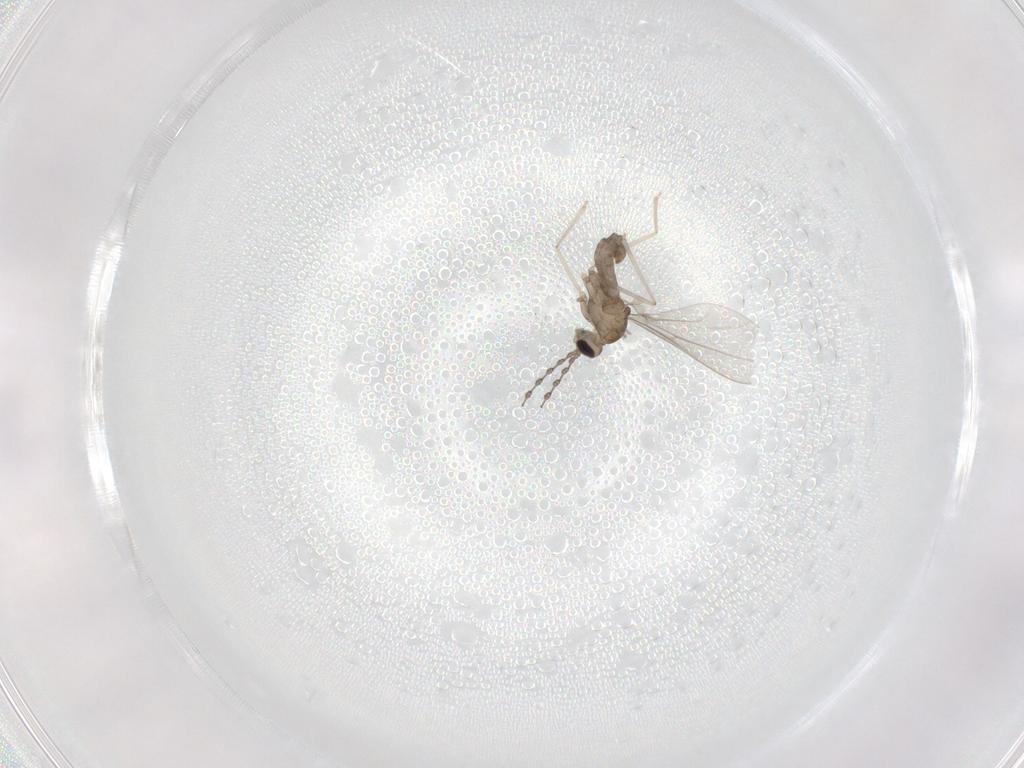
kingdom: Animalia
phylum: Arthropoda
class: Insecta
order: Diptera
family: Cecidomyiidae
